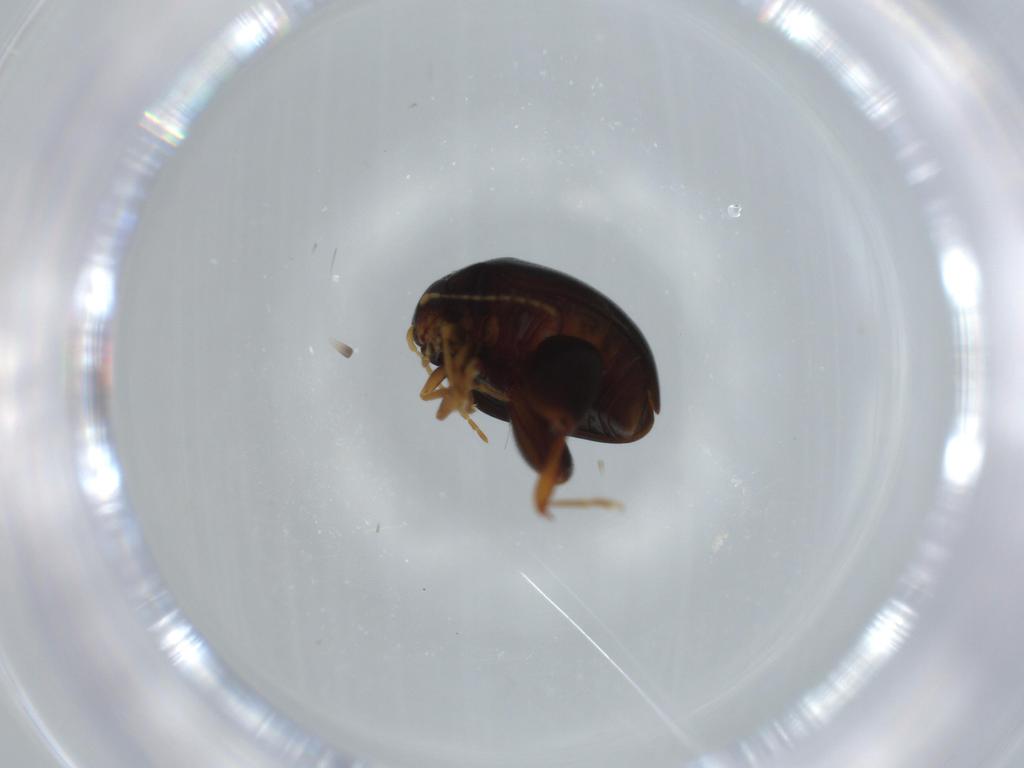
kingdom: Animalia
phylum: Arthropoda
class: Insecta
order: Coleoptera
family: Chrysomelidae
